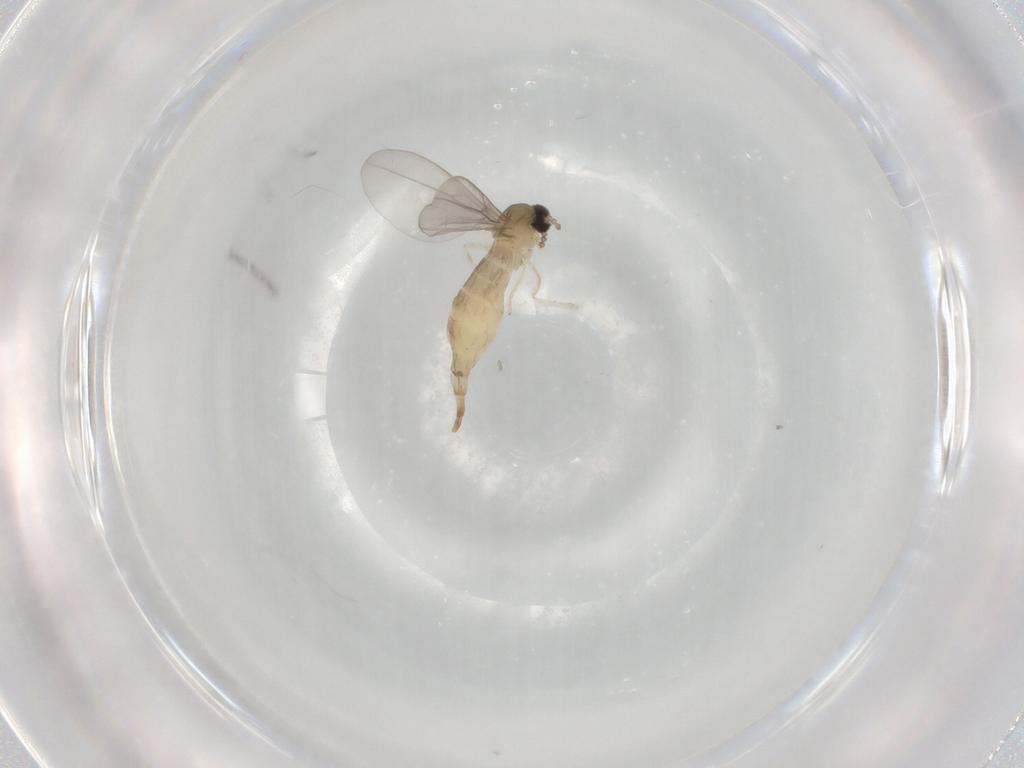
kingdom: Animalia
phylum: Arthropoda
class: Insecta
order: Diptera
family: Cecidomyiidae
